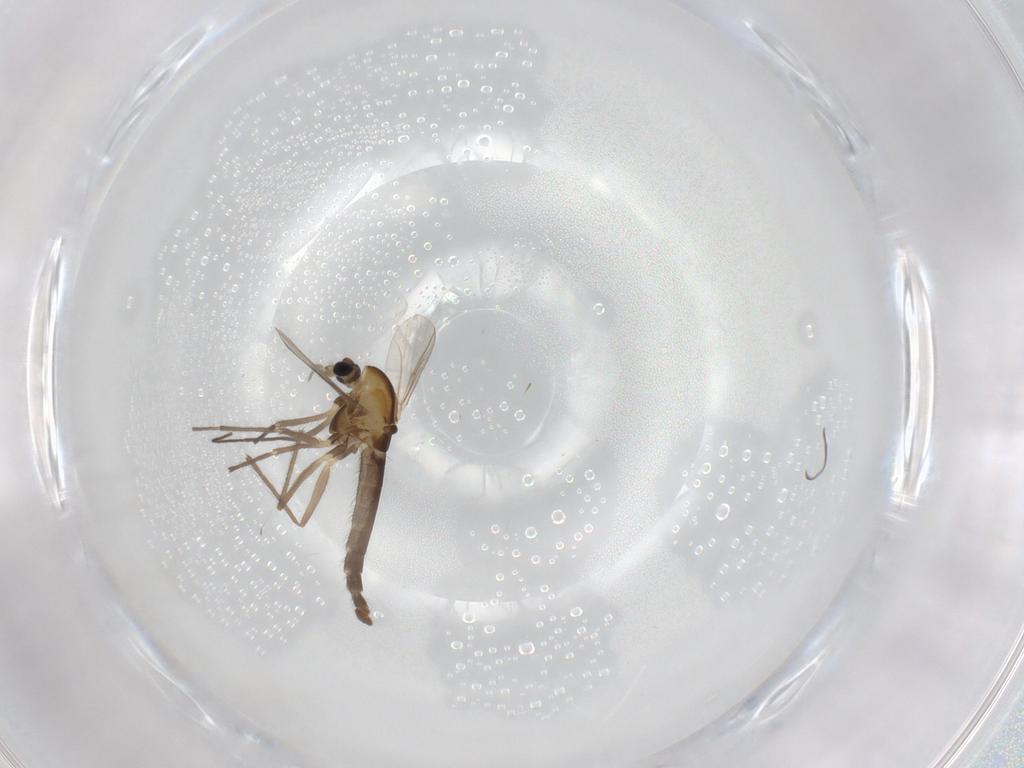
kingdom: Animalia
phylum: Arthropoda
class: Insecta
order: Diptera
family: Chironomidae
